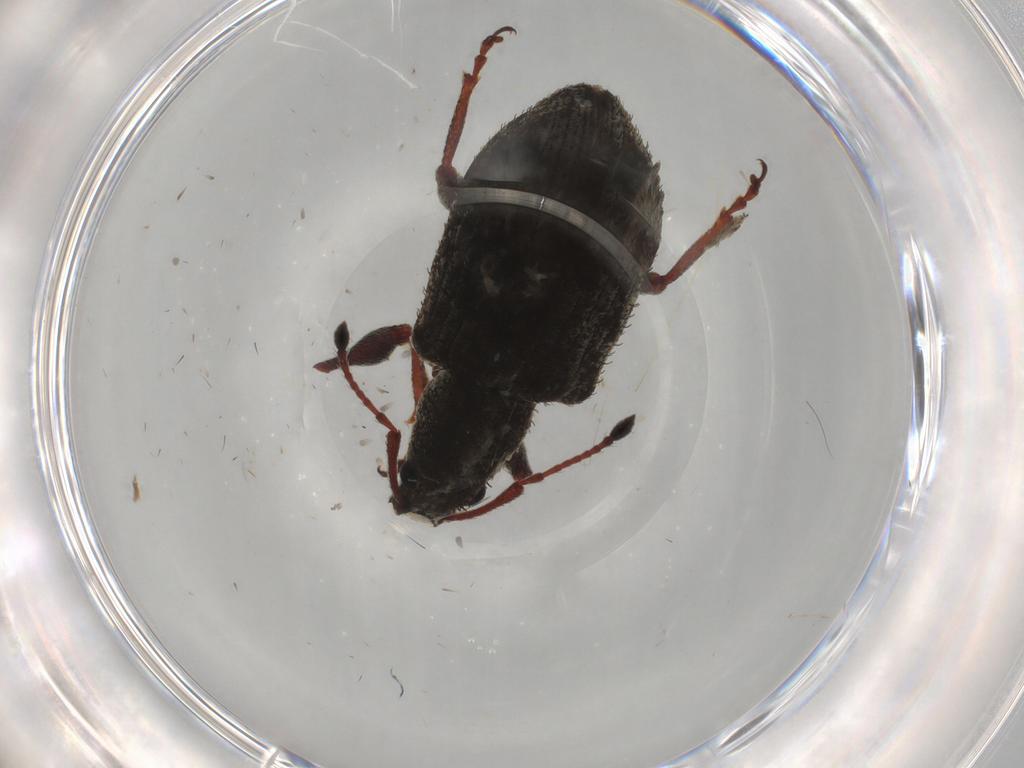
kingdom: Animalia
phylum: Arthropoda
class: Insecta
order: Coleoptera
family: Curculionidae
